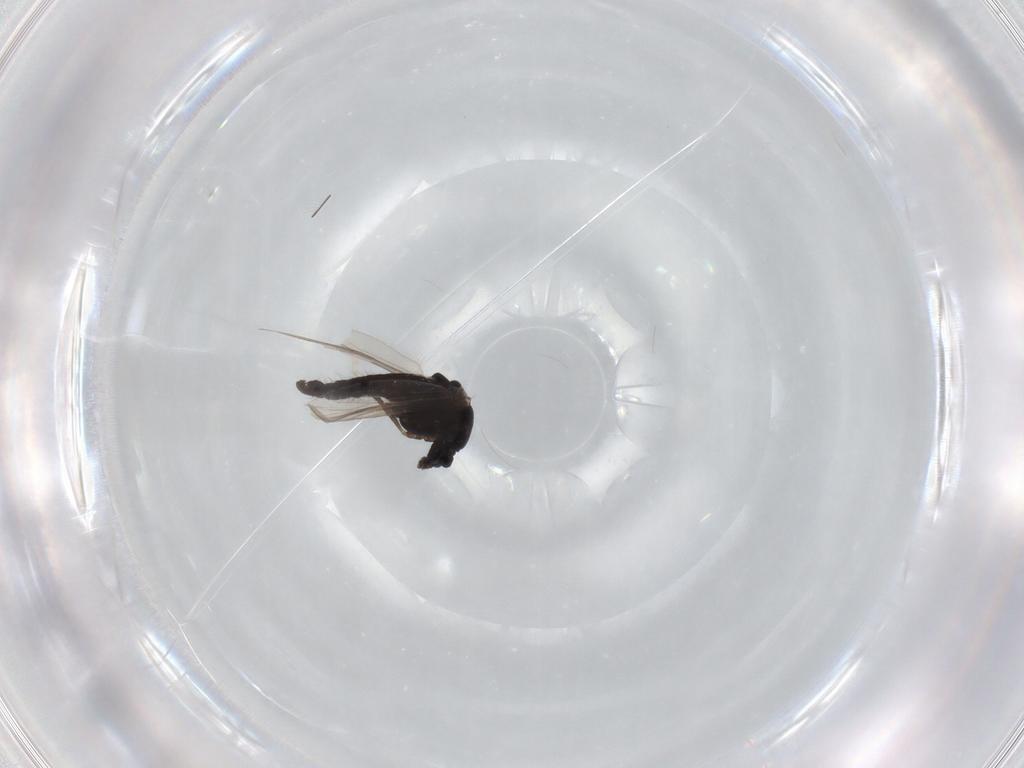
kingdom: Animalia
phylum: Arthropoda
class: Insecta
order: Diptera
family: Chironomidae
